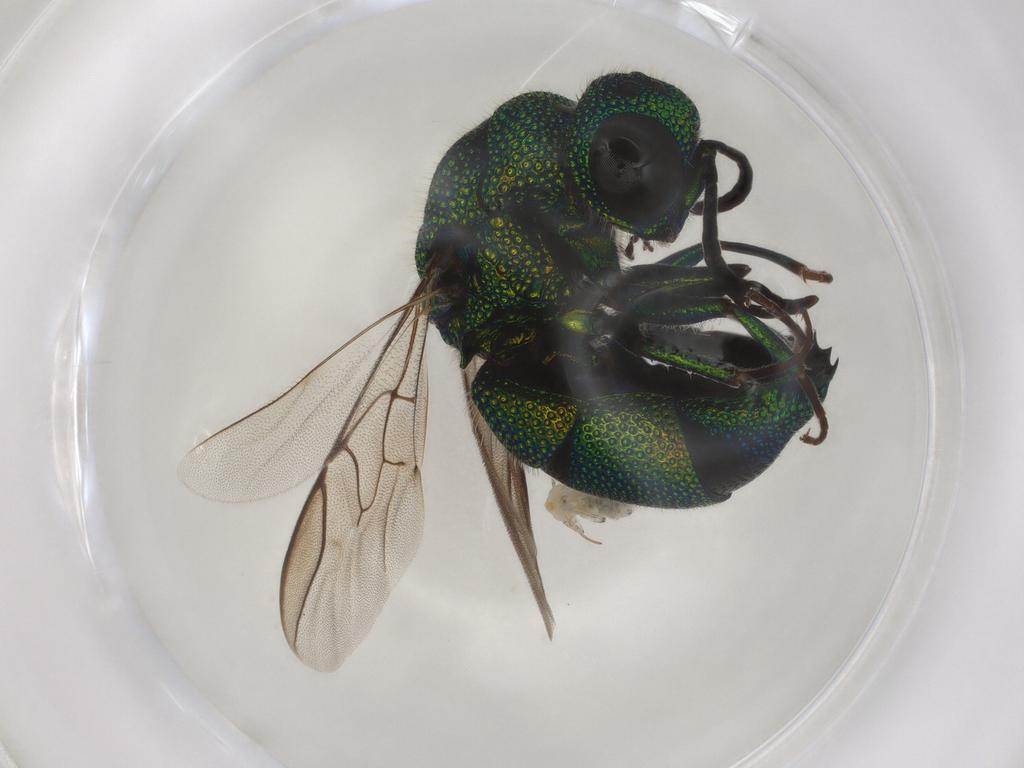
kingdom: Animalia
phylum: Arthropoda
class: Insecta
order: Hymenoptera
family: Chrysididae
